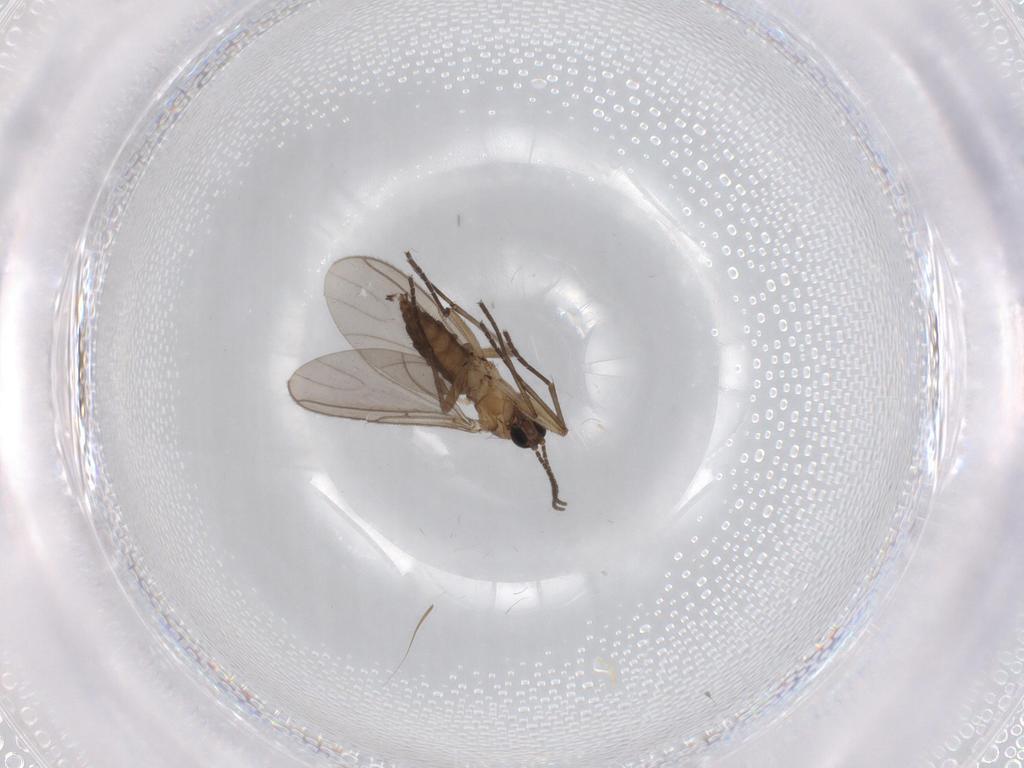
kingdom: Animalia
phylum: Arthropoda
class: Insecta
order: Diptera
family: Sciaridae
